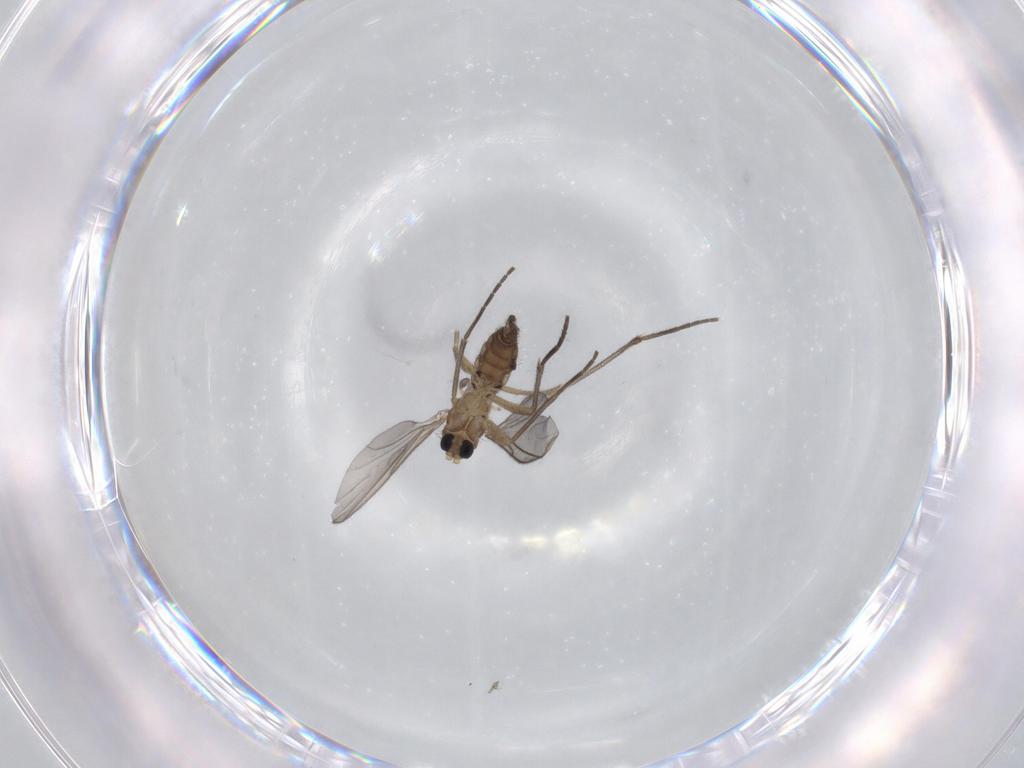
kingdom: Animalia
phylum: Arthropoda
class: Insecta
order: Diptera
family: Sciaridae
